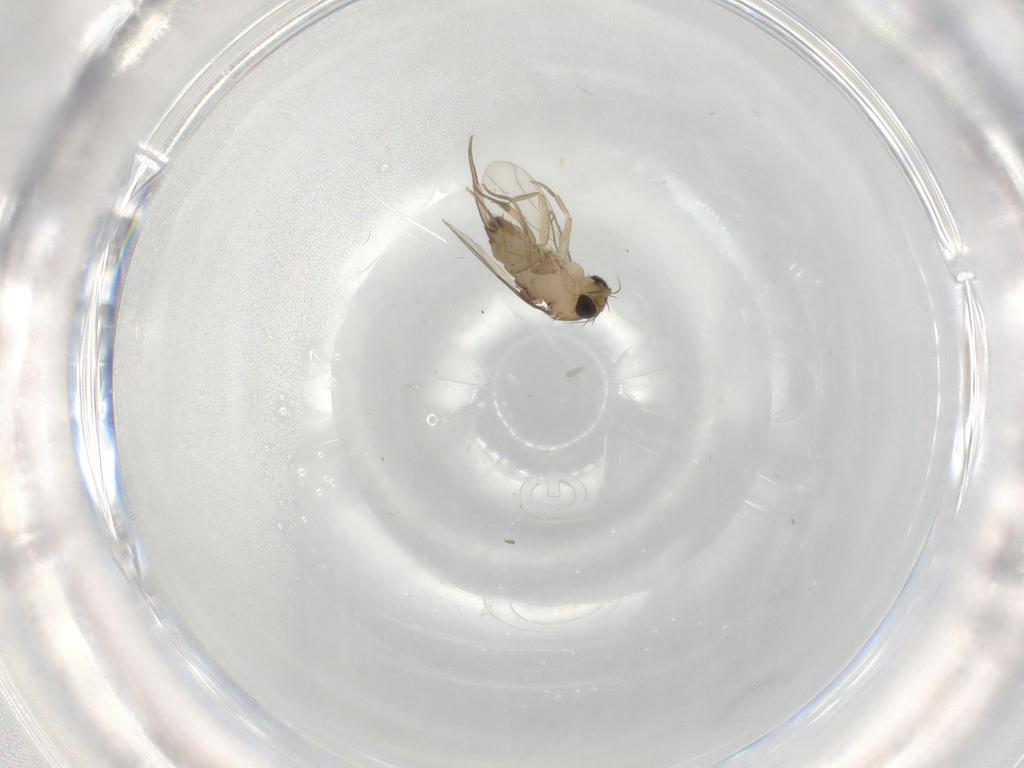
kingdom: Animalia
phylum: Arthropoda
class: Insecta
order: Diptera
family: Phoridae
